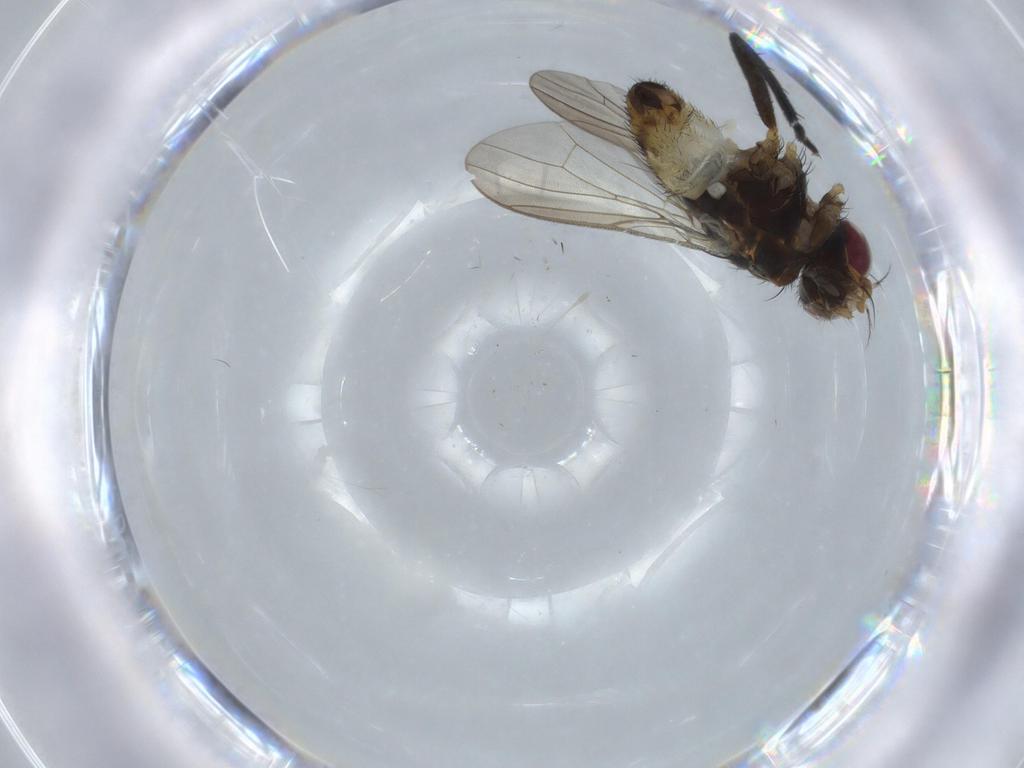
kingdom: Animalia
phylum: Arthropoda
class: Insecta
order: Diptera
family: Anthomyiidae
